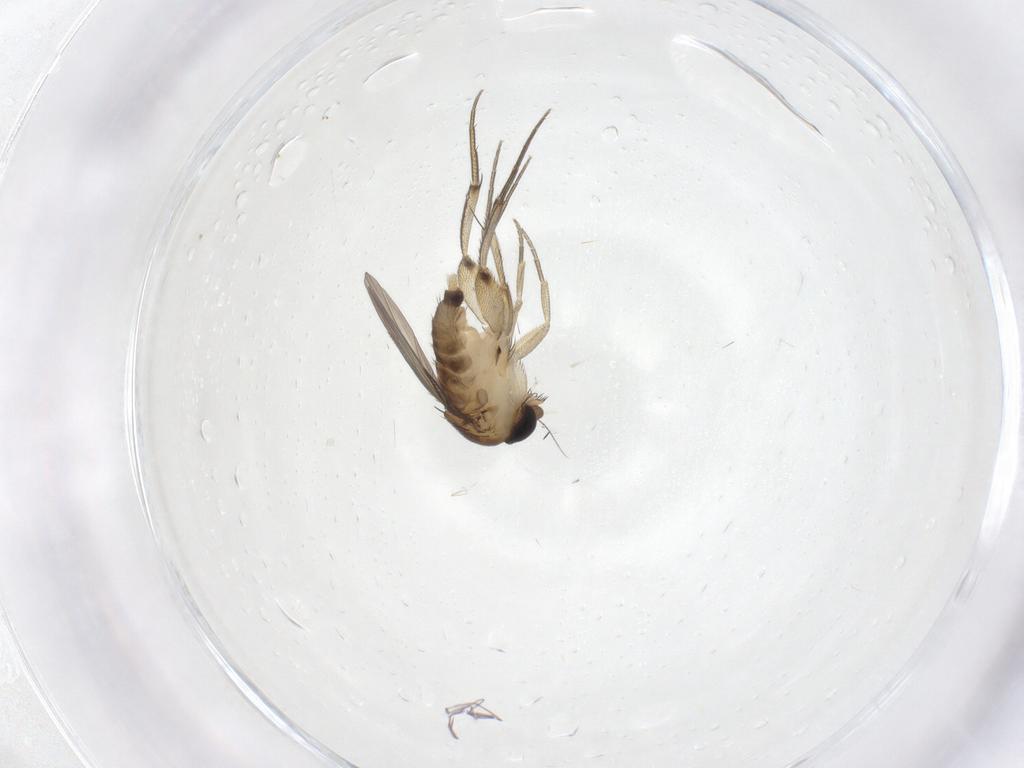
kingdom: Animalia
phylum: Arthropoda
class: Insecta
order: Diptera
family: Phoridae
